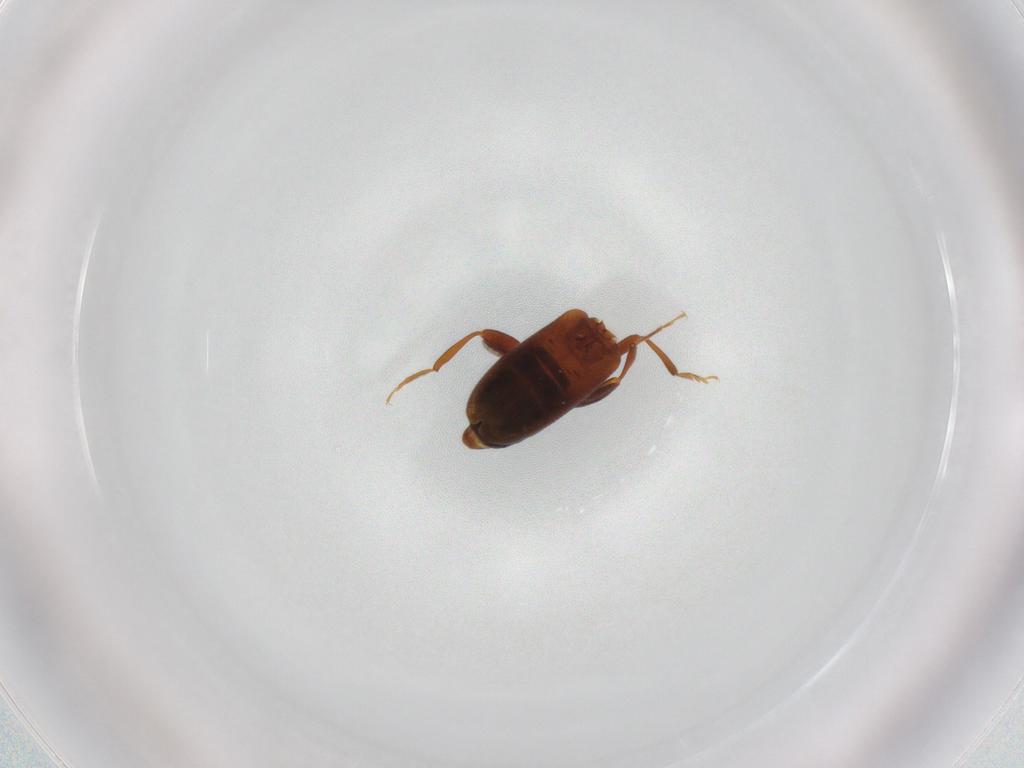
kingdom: Animalia
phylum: Arthropoda
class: Insecta
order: Coleoptera
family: Aderidae
